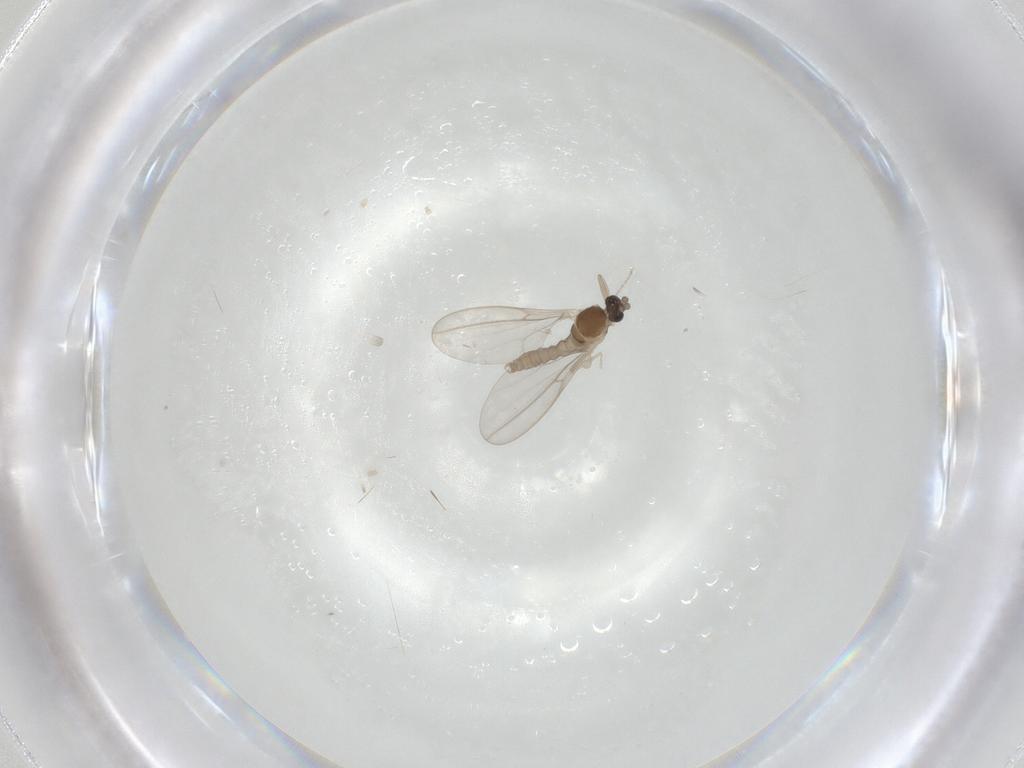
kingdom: Animalia
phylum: Arthropoda
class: Insecta
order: Diptera
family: Cecidomyiidae
